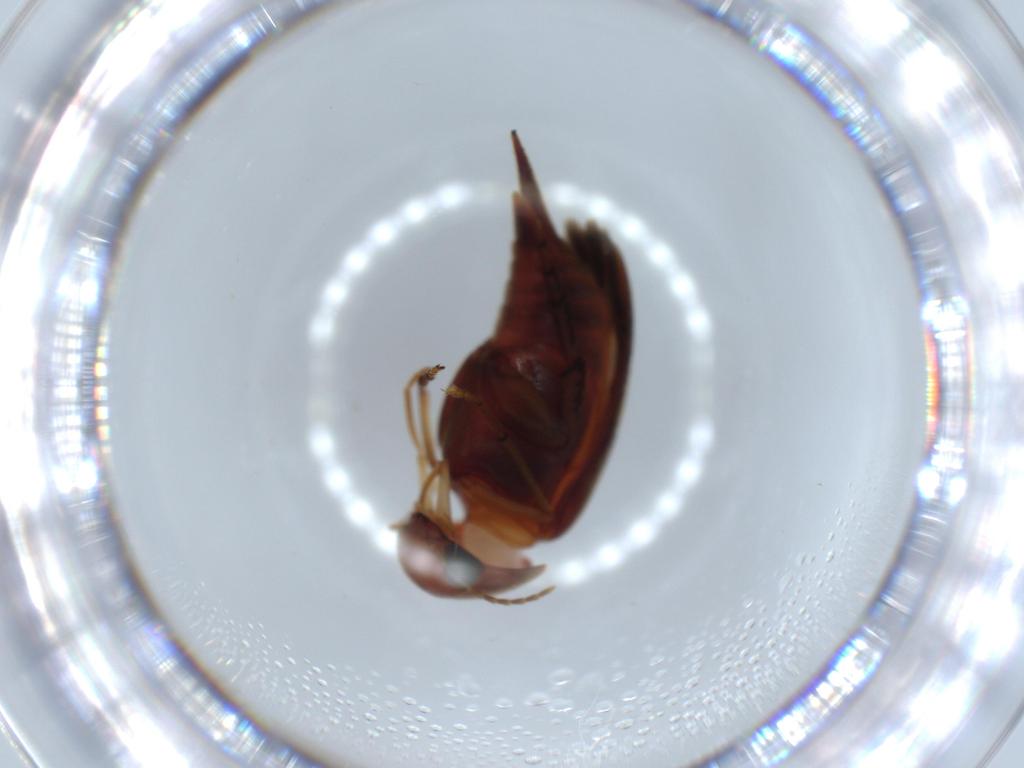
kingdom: Animalia
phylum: Arthropoda
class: Insecta
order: Coleoptera
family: Mordellidae
